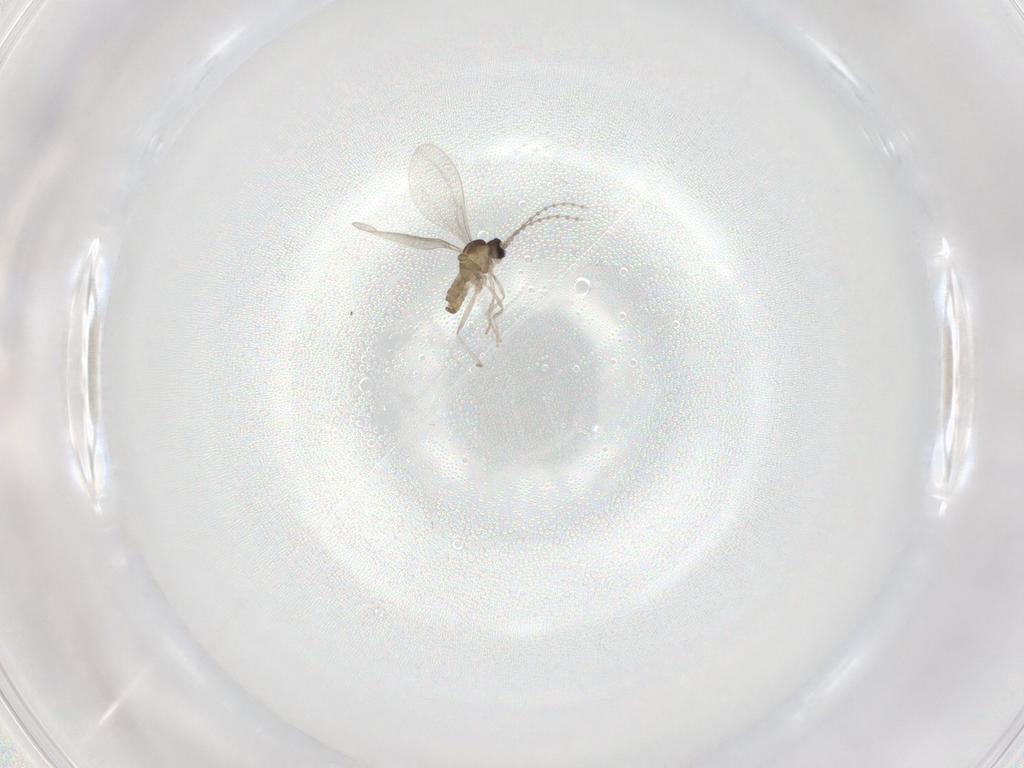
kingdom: Animalia
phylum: Arthropoda
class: Insecta
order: Diptera
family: Cecidomyiidae
